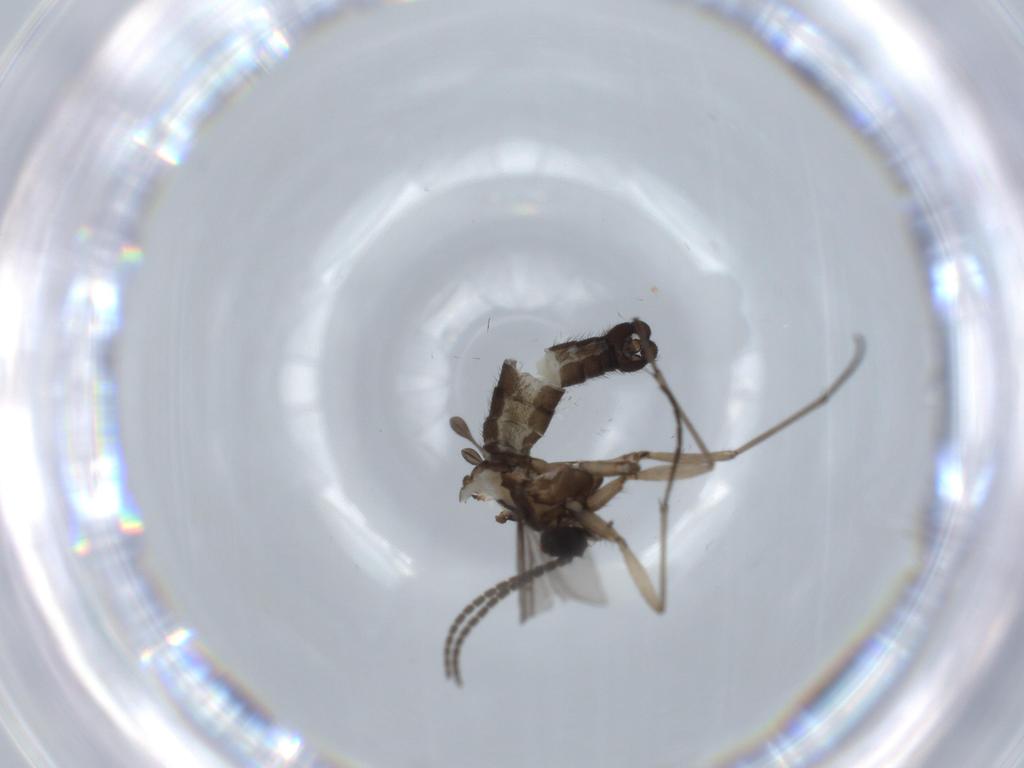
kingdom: Animalia
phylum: Arthropoda
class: Insecta
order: Diptera
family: Sciaridae
